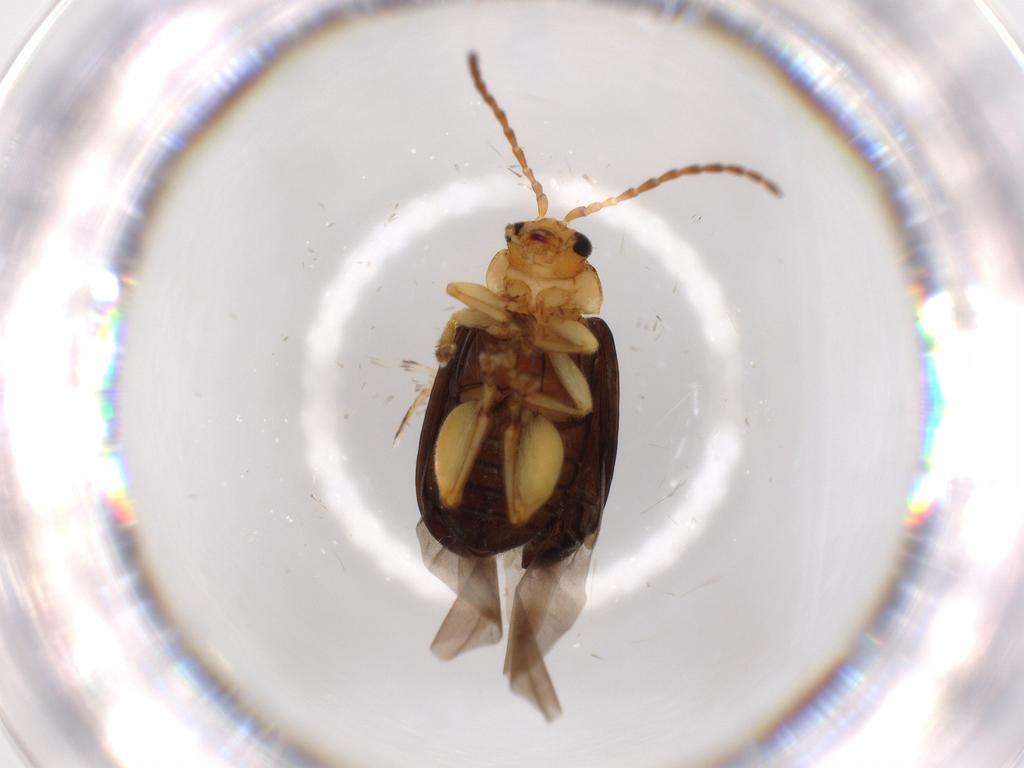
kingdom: Animalia
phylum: Arthropoda
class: Insecta
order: Coleoptera
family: Chrysomelidae
